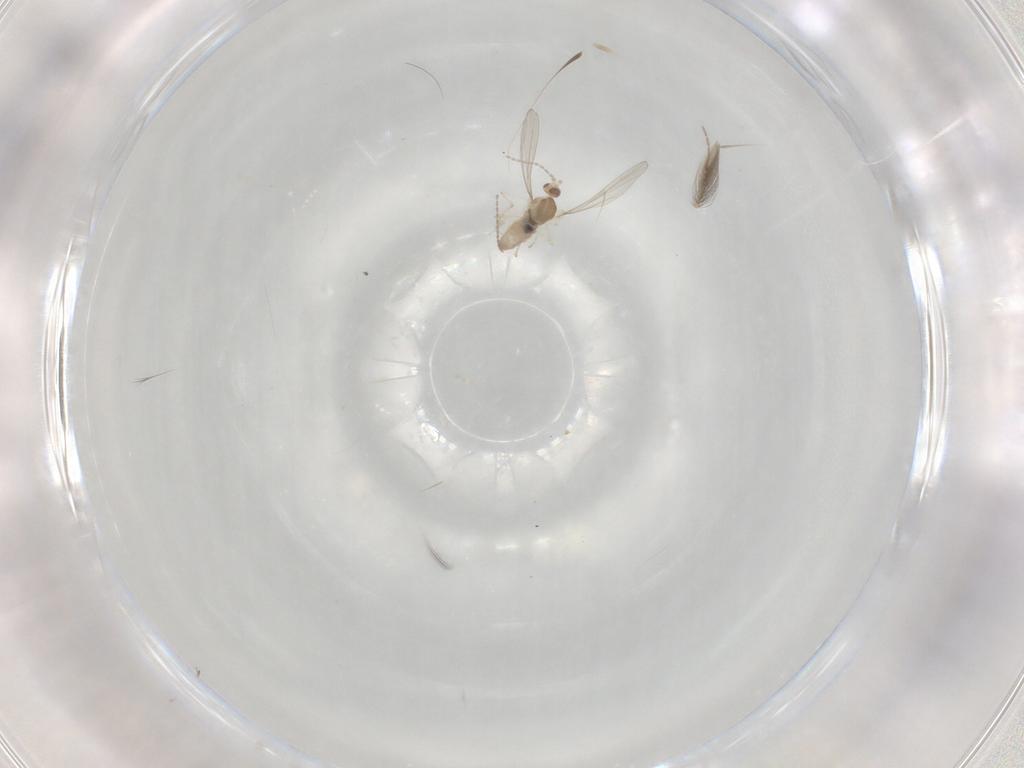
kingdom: Animalia
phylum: Arthropoda
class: Insecta
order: Diptera
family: Cecidomyiidae
